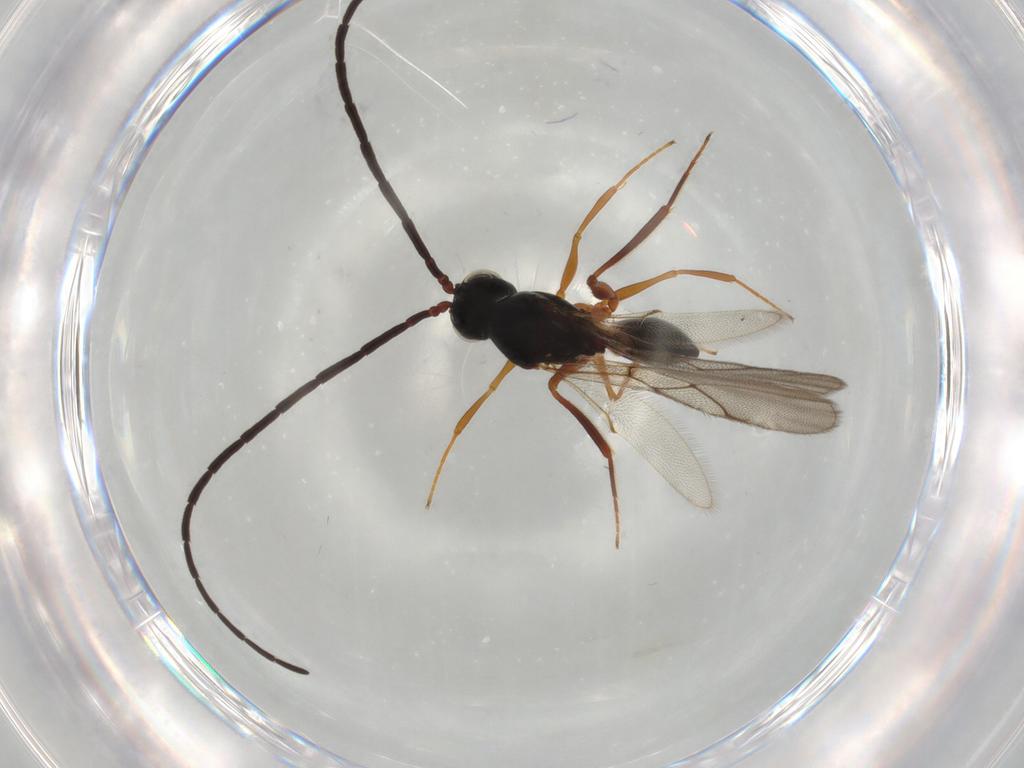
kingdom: Animalia
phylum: Arthropoda
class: Insecta
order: Hymenoptera
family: Figitidae
